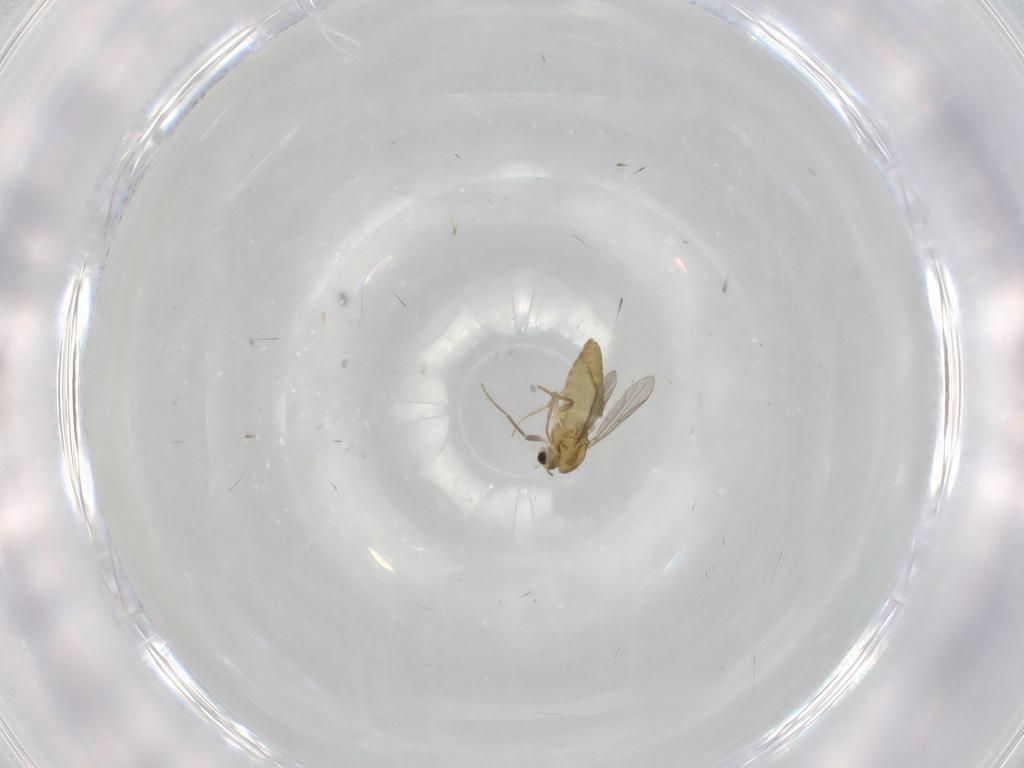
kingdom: Animalia
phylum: Arthropoda
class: Insecta
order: Diptera
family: Chironomidae
